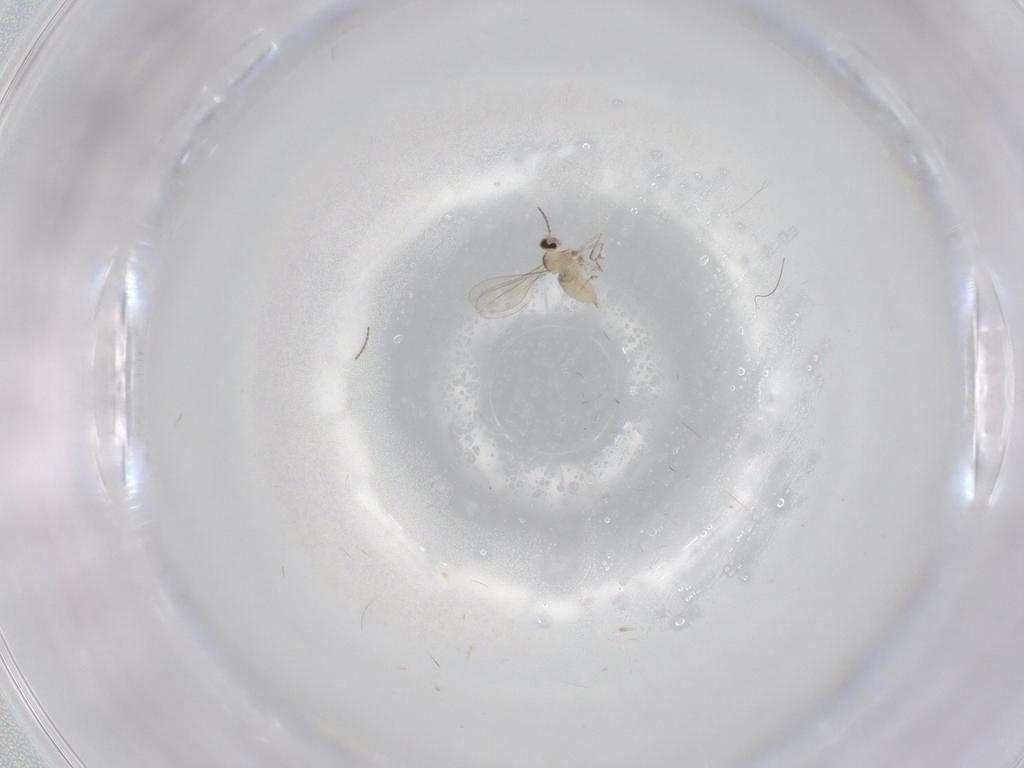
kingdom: Animalia
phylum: Arthropoda
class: Insecta
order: Diptera
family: Cecidomyiidae
